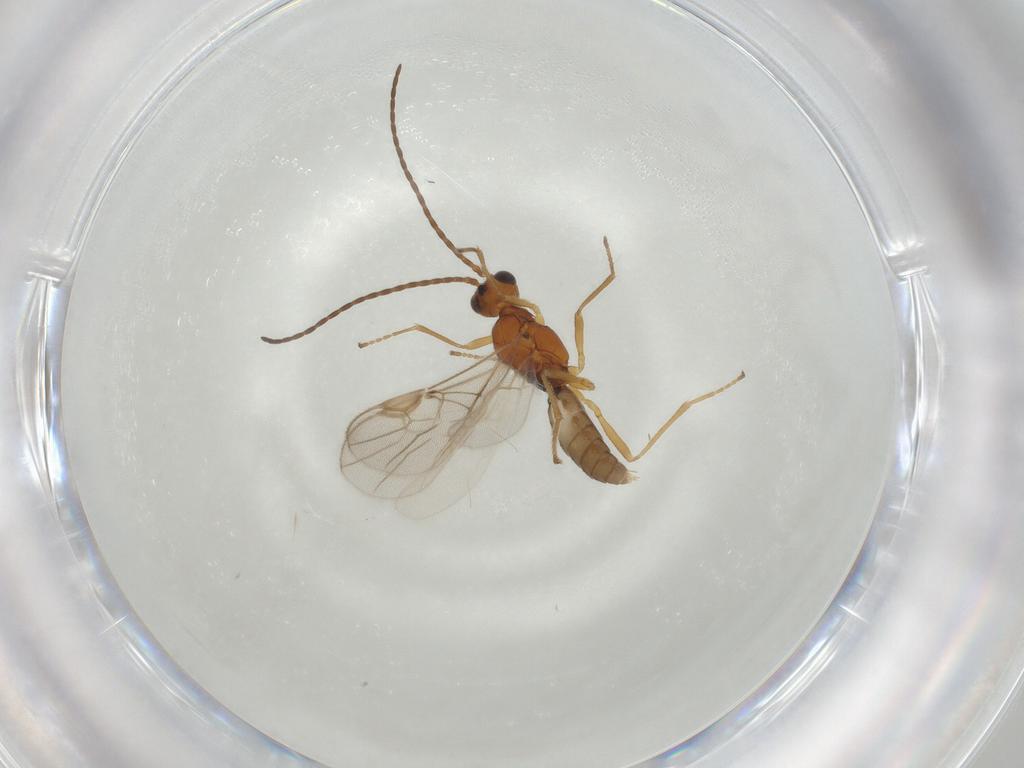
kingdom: Animalia
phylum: Arthropoda
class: Insecta
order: Hymenoptera
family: Braconidae
